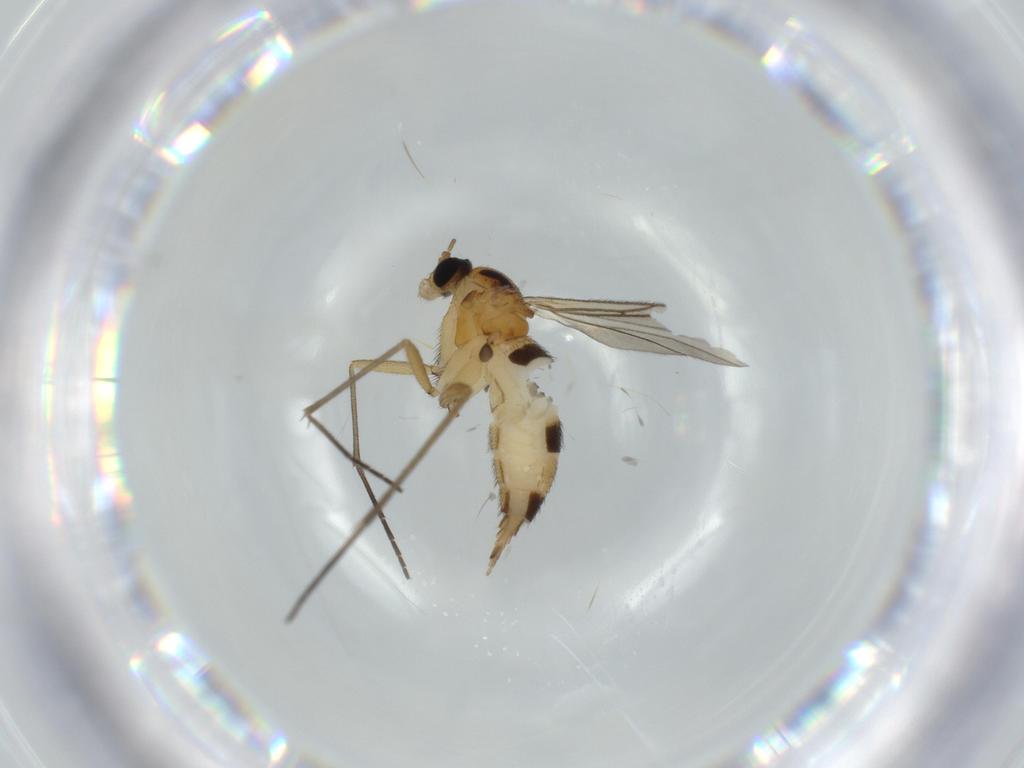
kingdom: Animalia
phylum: Arthropoda
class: Insecta
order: Diptera
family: Sciaridae
